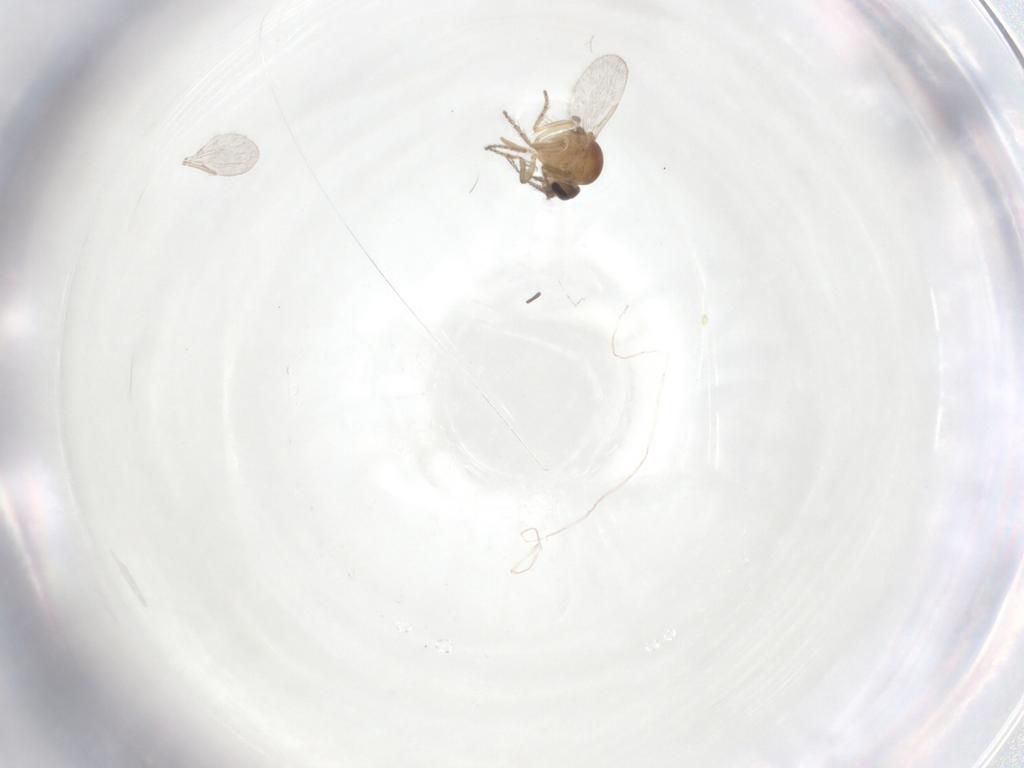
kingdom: Animalia
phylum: Arthropoda
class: Insecta
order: Diptera
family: Ceratopogonidae
